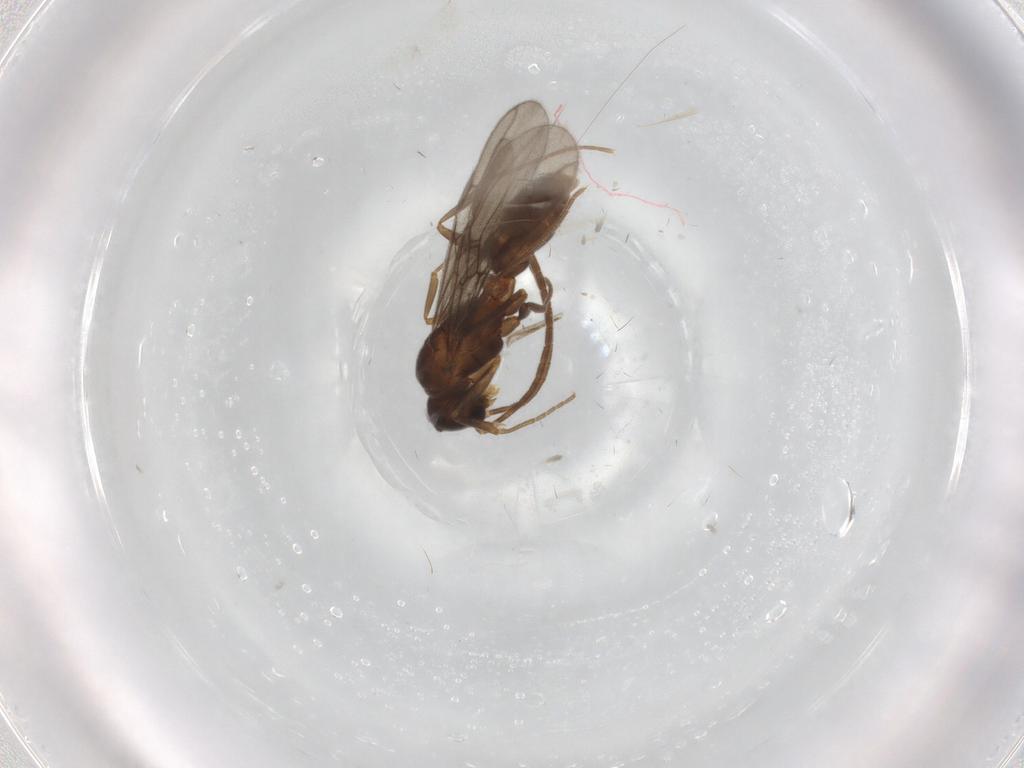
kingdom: Animalia
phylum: Arthropoda
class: Insecta
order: Hymenoptera
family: Formicidae
